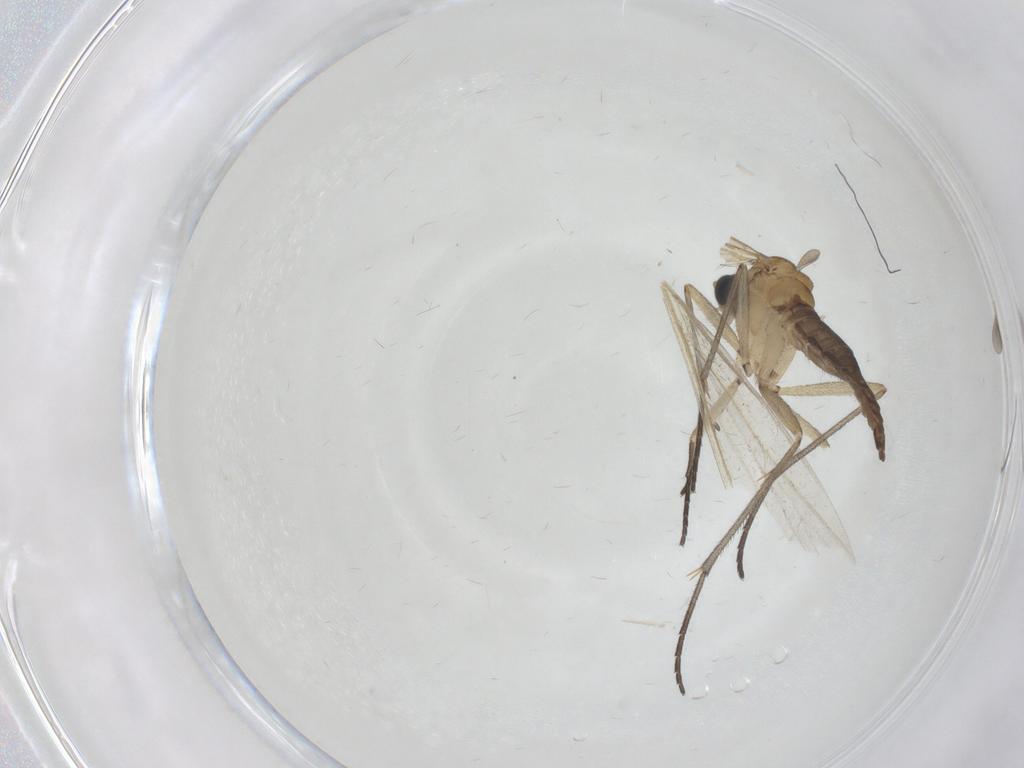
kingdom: Animalia
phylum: Arthropoda
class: Insecta
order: Diptera
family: Sciaridae
